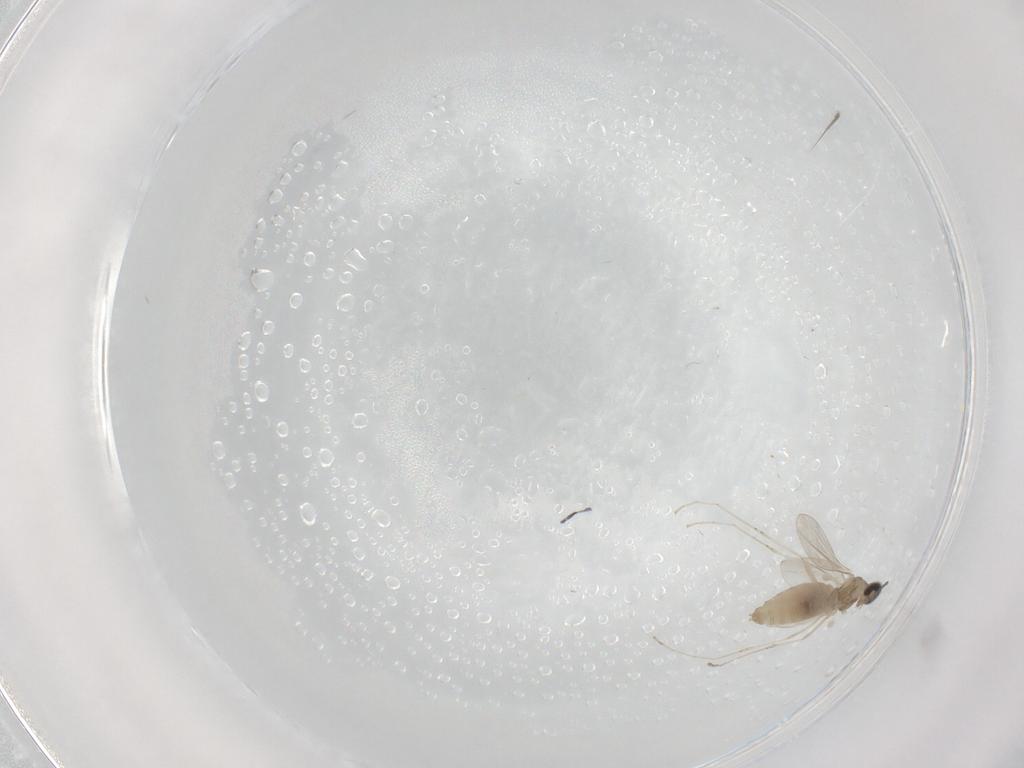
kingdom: Animalia
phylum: Arthropoda
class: Insecta
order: Diptera
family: Cecidomyiidae
